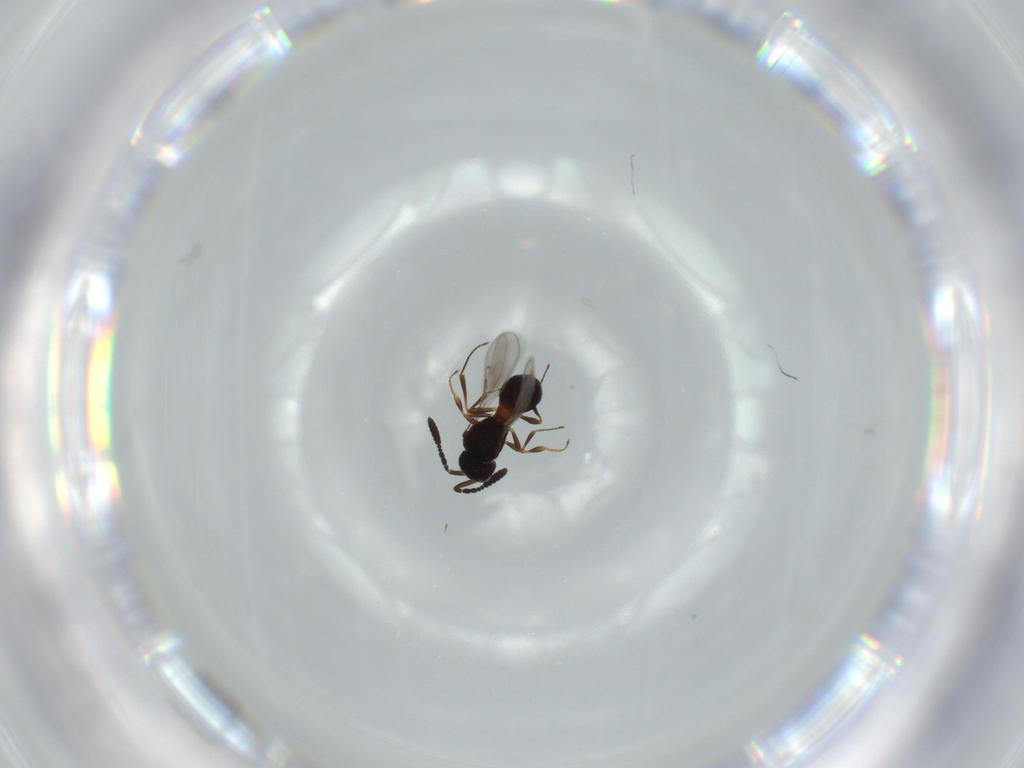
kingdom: Animalia
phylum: Arthropoda
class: Insecta
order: Hymenoptera
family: Scelionidae
